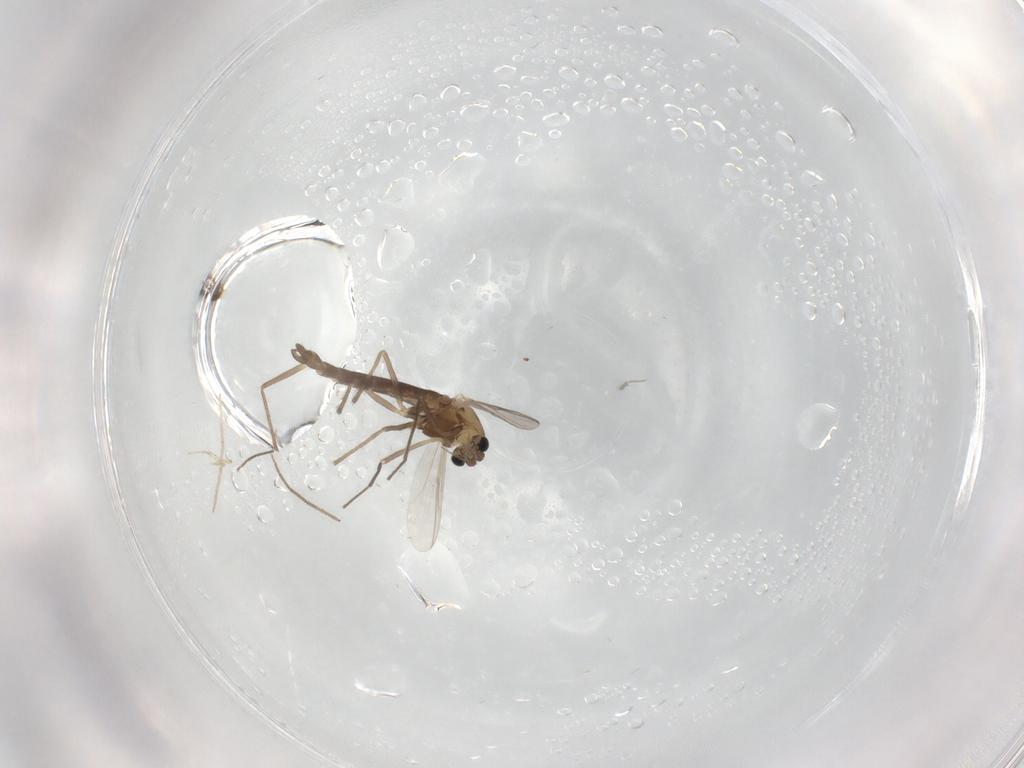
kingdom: Animalia
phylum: Arthropoda
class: Insecta
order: Diptera
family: Chironomidae
